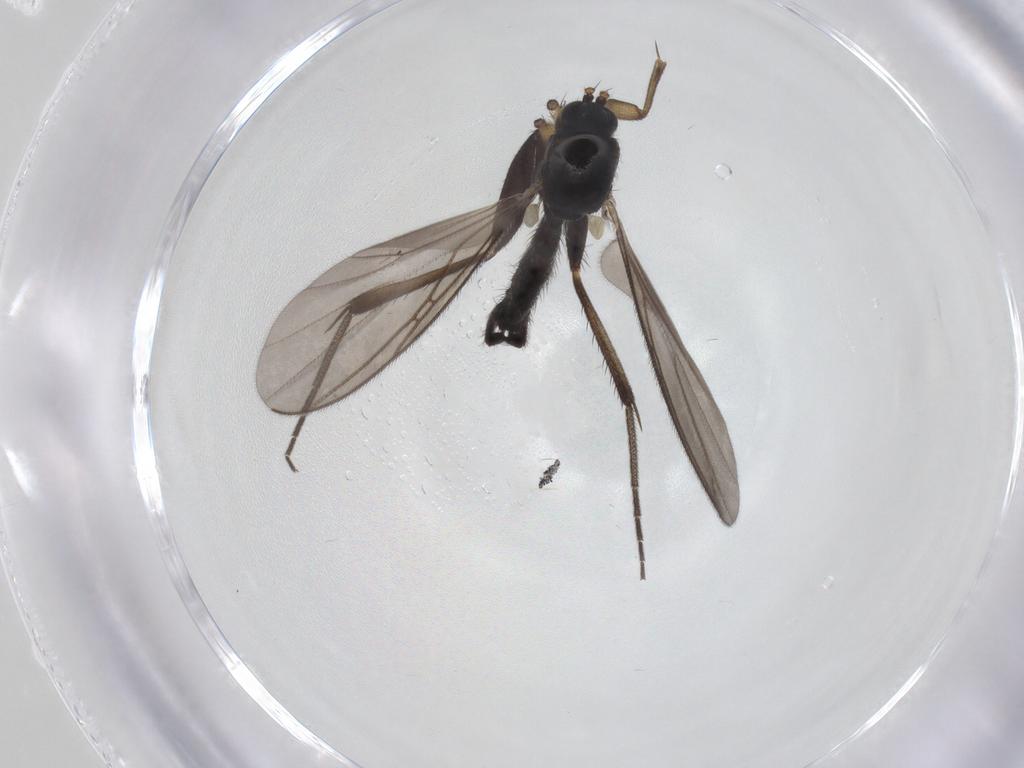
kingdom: Animalia
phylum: Arthropoda
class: Insecta
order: Diptera
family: Mycetophilidae
